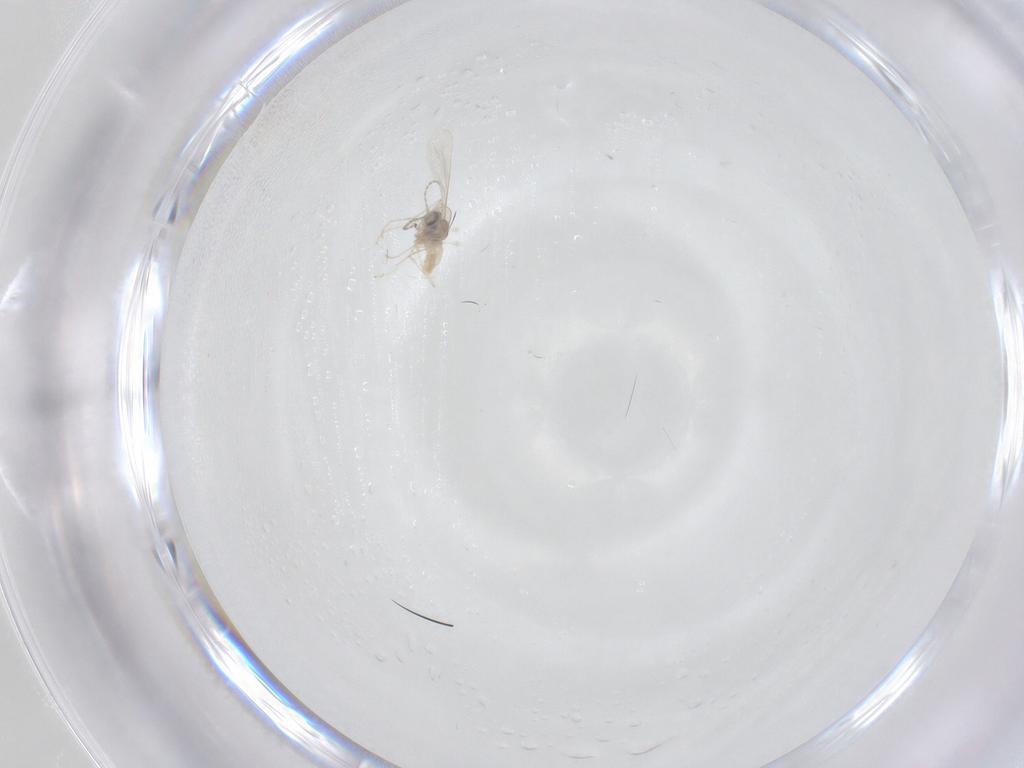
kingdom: Animalia
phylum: Arthropoda
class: Insecta
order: Diptera
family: Cecidomyiidae
